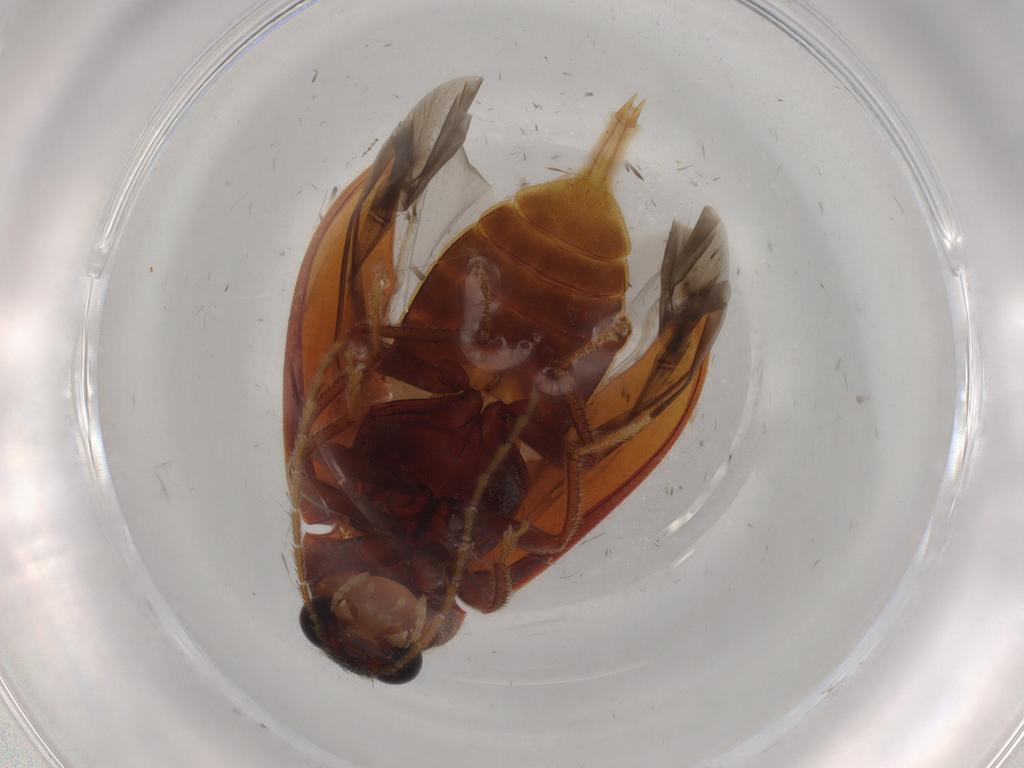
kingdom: Animalia
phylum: Arthropoda
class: Insecta
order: Coleoptera
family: Ptilodactylidae
